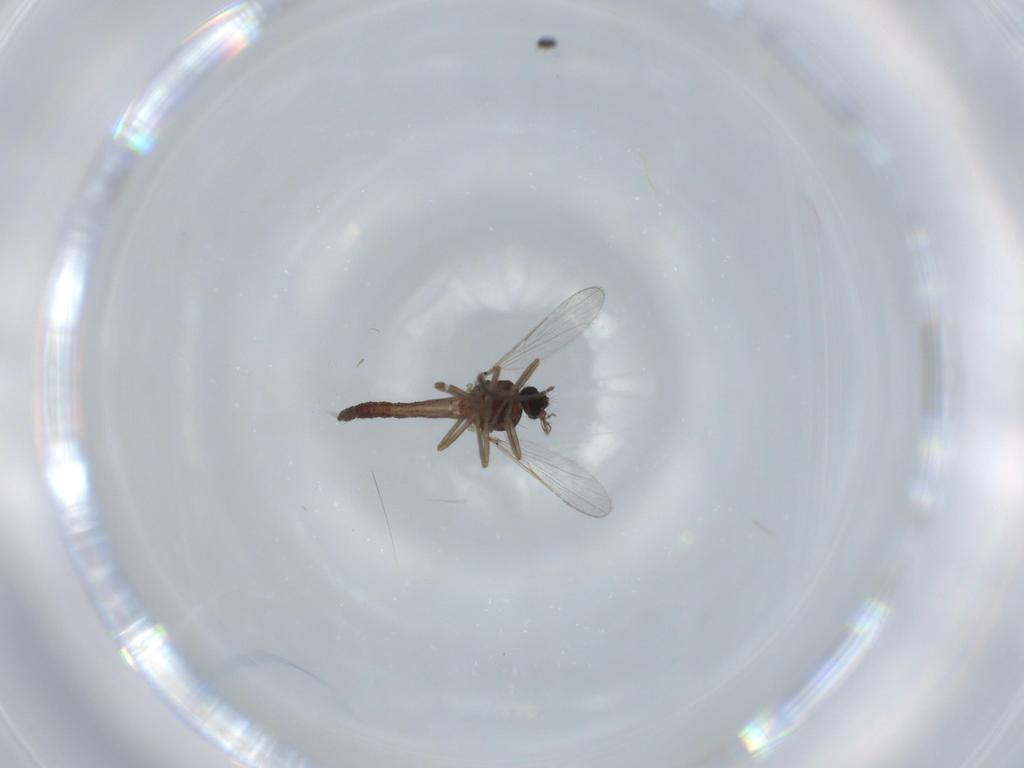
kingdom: Animalia
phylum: Arthropoda
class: Insecta
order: Diptera
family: Ceratopogonidae
